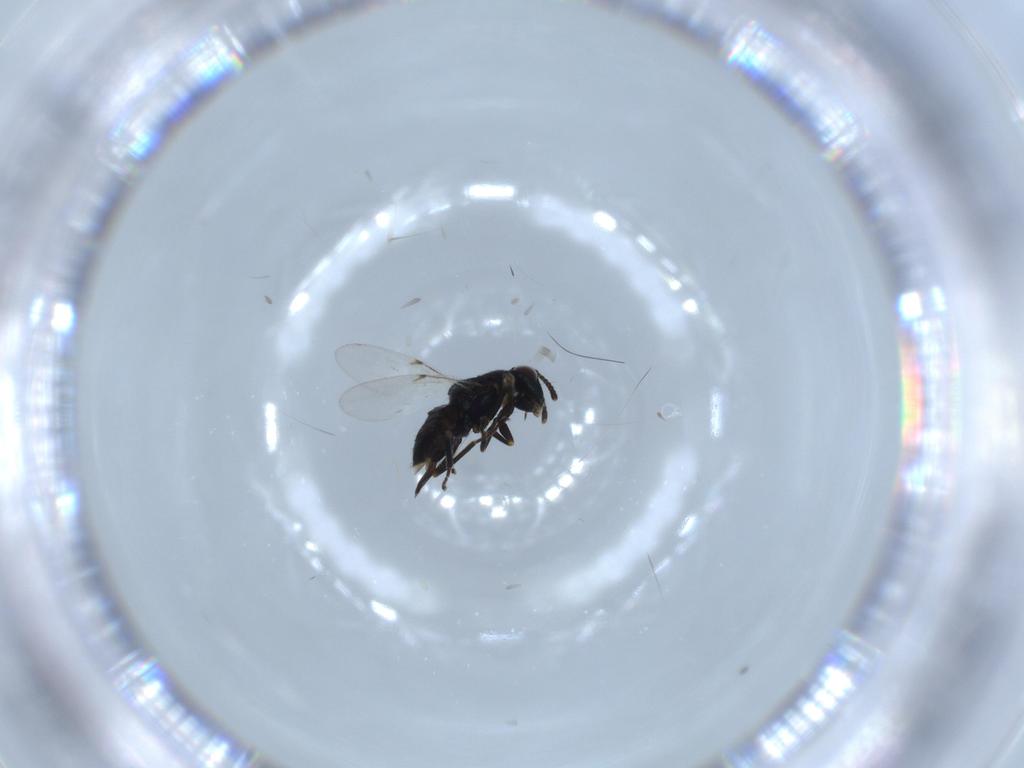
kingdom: Animalia
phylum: Arthropoda
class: Insecta
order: Hymenoptera
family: Encyrtidae
